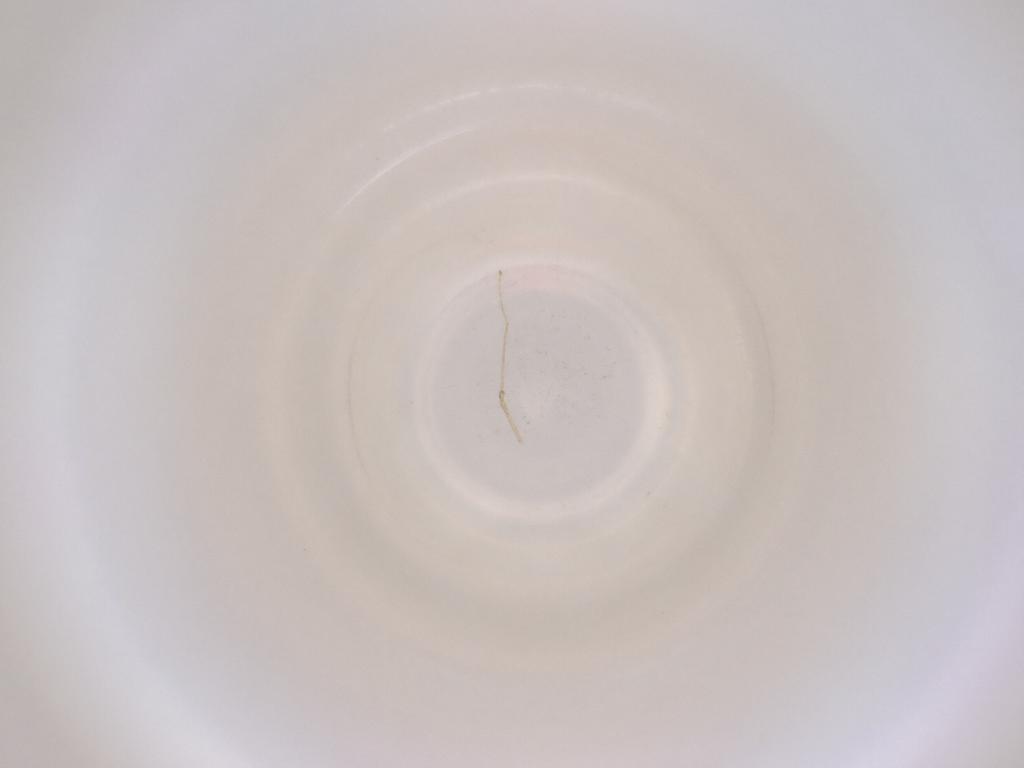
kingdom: Animalia
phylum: Arthropoda
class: Insecta
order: Diptera
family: Cecidomyiidae
